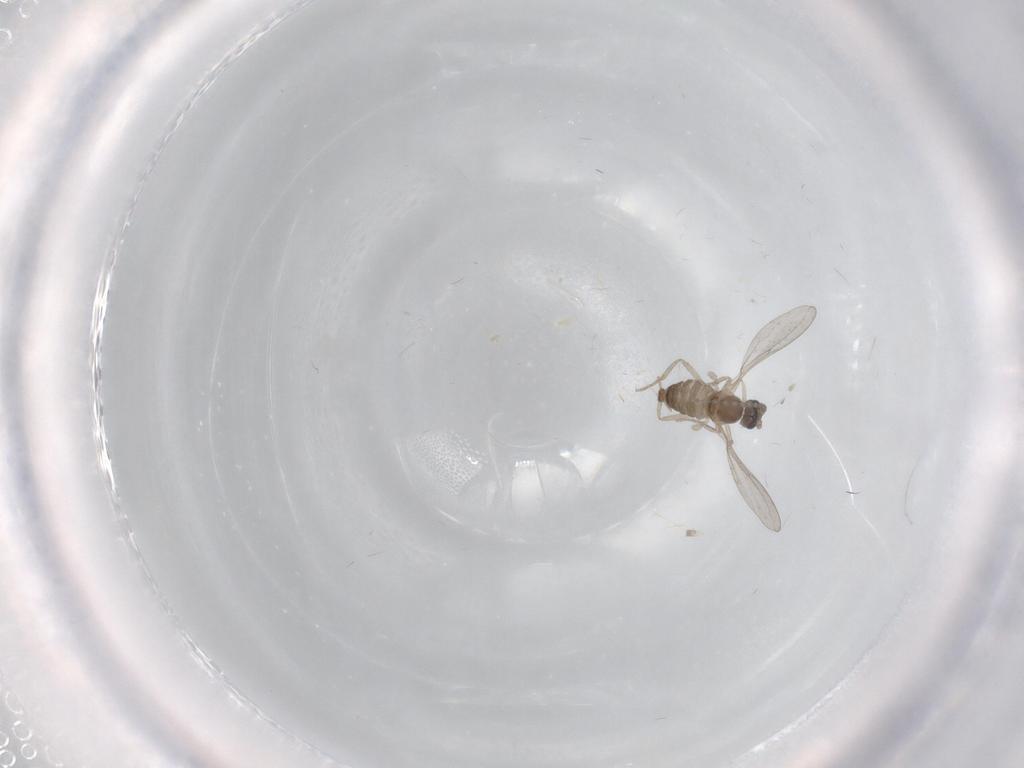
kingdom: Animalia
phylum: Arthropoda
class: Insecta
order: Diptera
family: Cecidomyiidae
